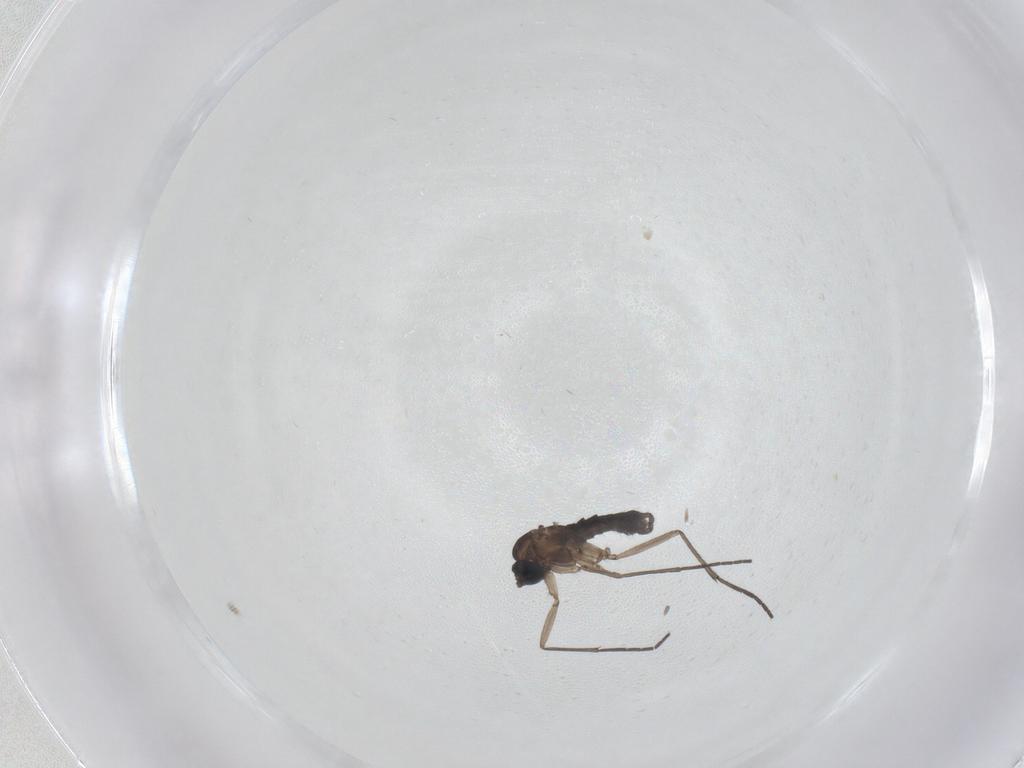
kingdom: Animalia
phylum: Arthropoda
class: Insecta
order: Diptera
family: Sciaridae
